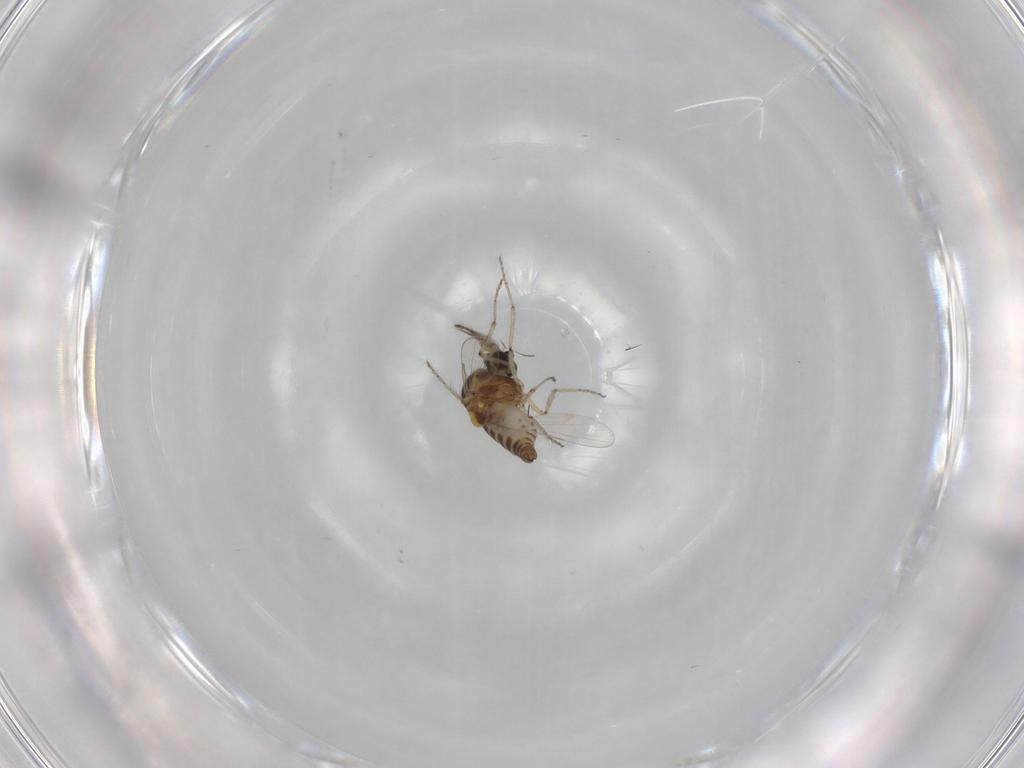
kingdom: Animalia
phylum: Arthropoda
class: Insecta
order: Diptera
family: Ceratopogonidae
